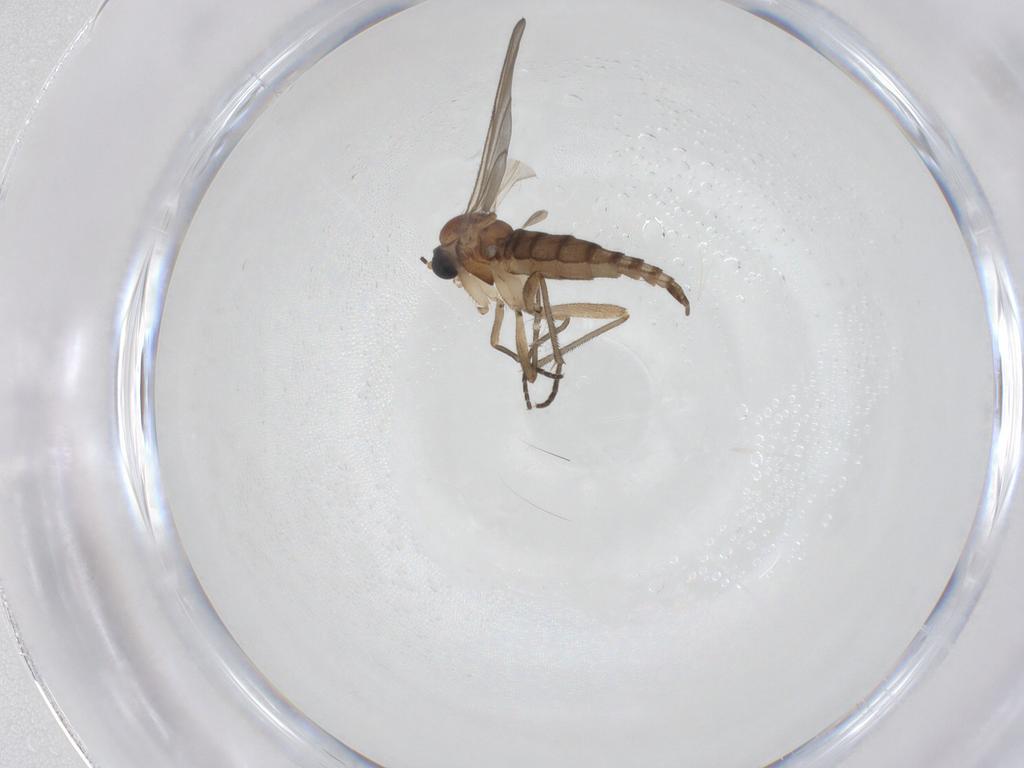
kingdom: Animalia
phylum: Arthropoda
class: Insecta
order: Diptera
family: Sciaridae
